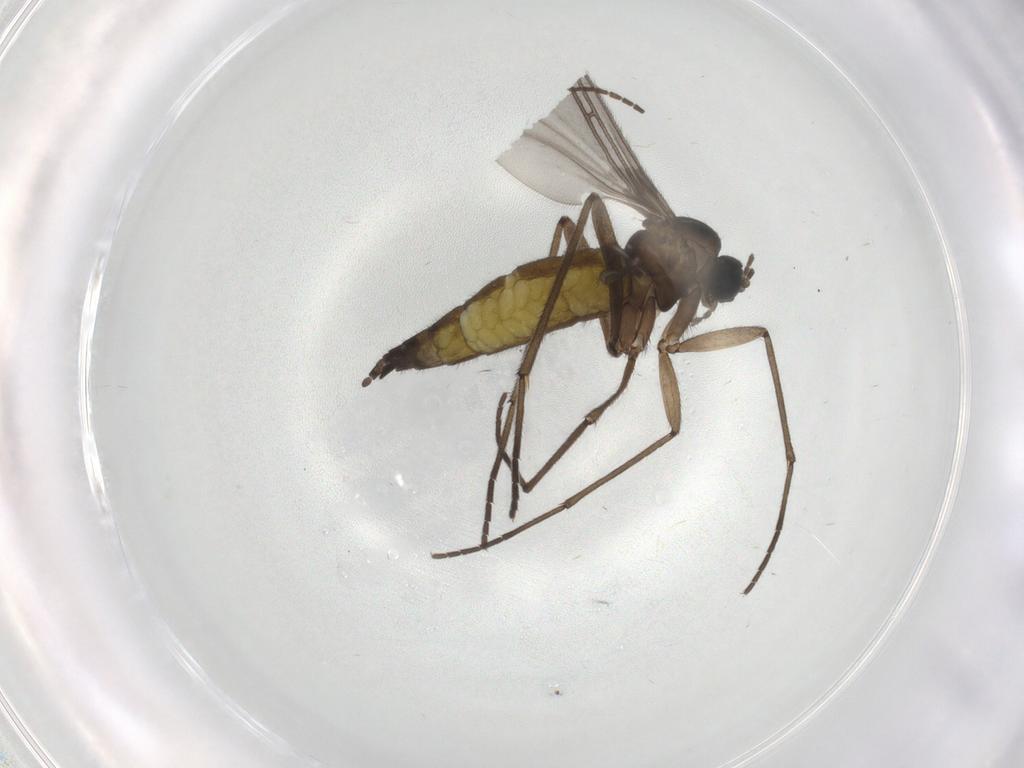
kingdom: Animalia
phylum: Arthropoda
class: Insecta
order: Diptera
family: Sciaridae
